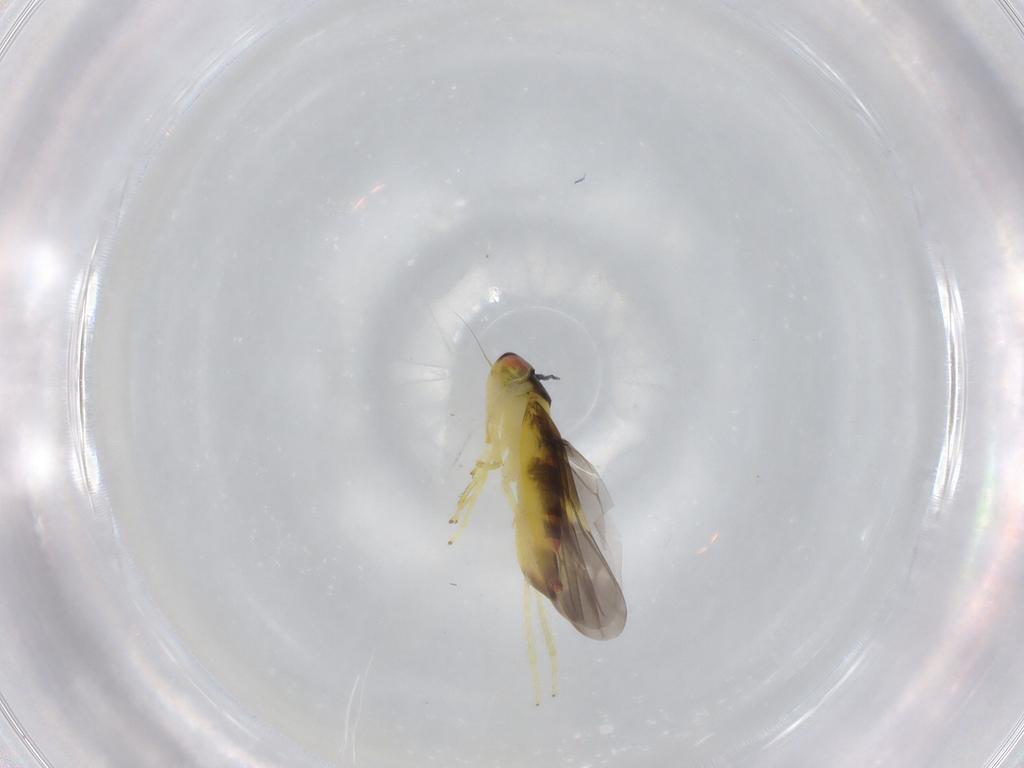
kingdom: Animalia
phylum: Arthropoda
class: Insecta
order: Hemiptera
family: Cicadellidae
